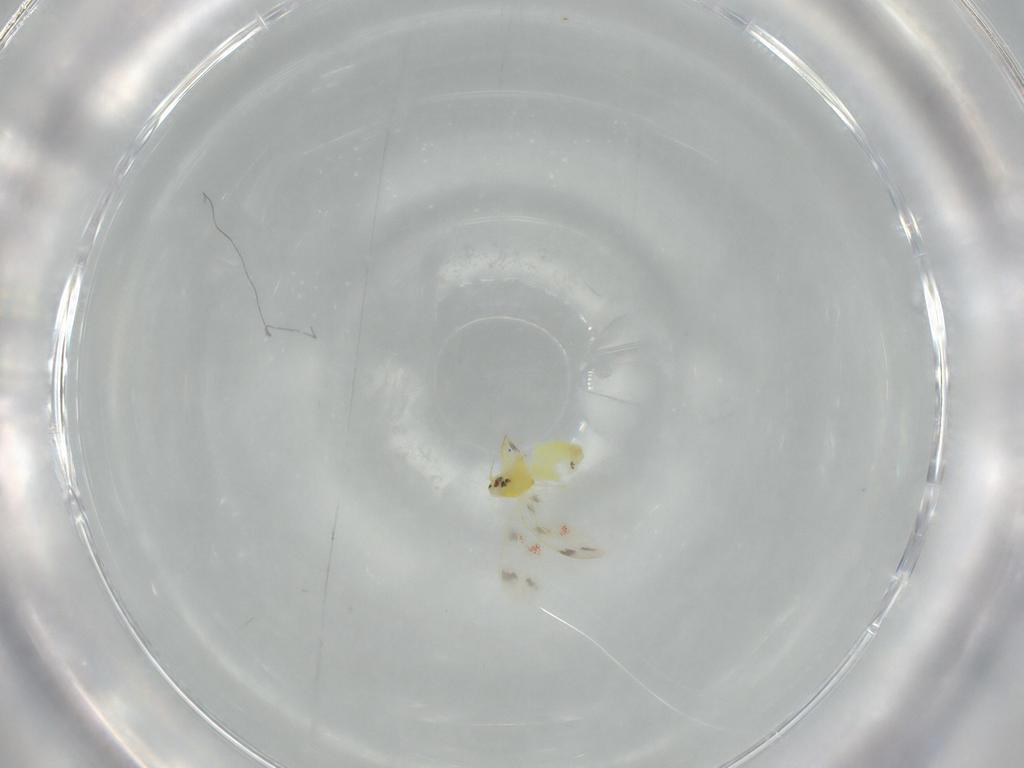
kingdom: Animalia
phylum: Arthropoda
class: Insecta
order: Hemiptera
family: Aleyrodidae
